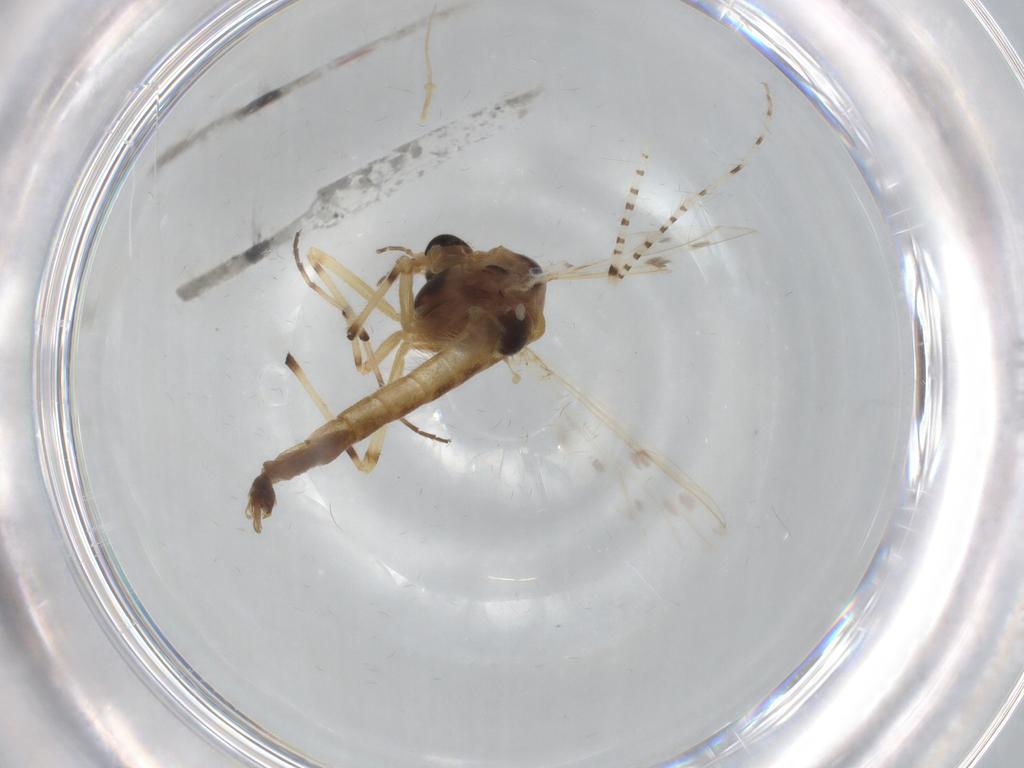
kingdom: Animalia
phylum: Arthropoda
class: Insecta
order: Diptera
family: Chironomidae
